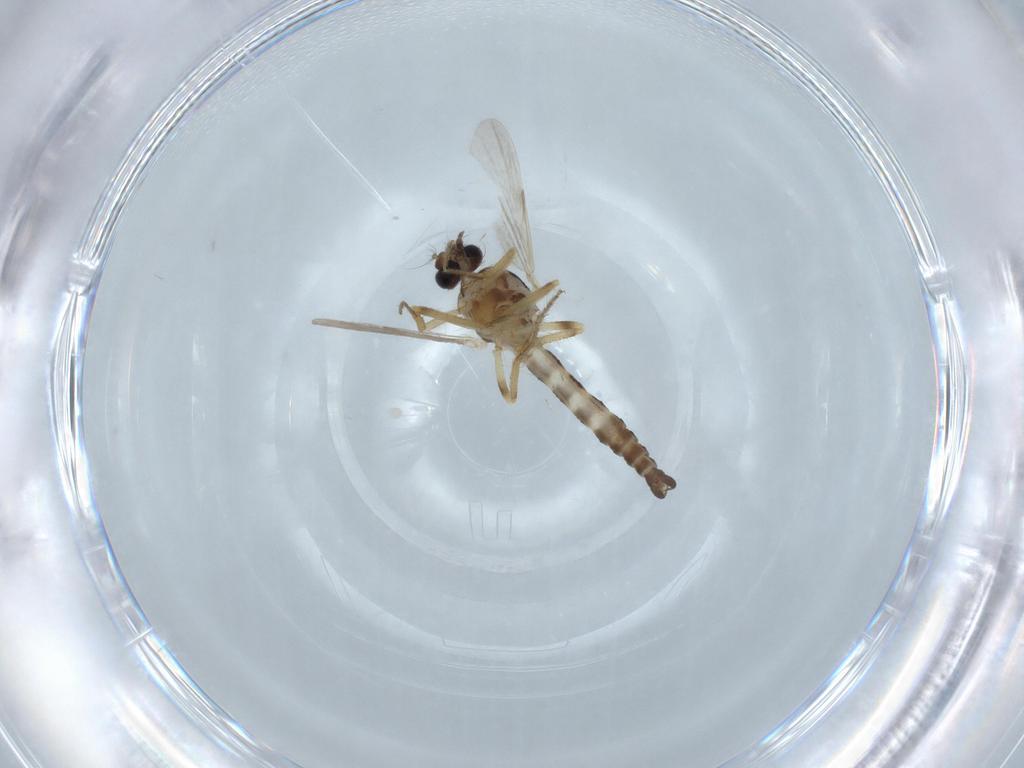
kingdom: Animalia
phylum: Arthropoda
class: Insecta
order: Diptera
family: Ceratopogonidae
